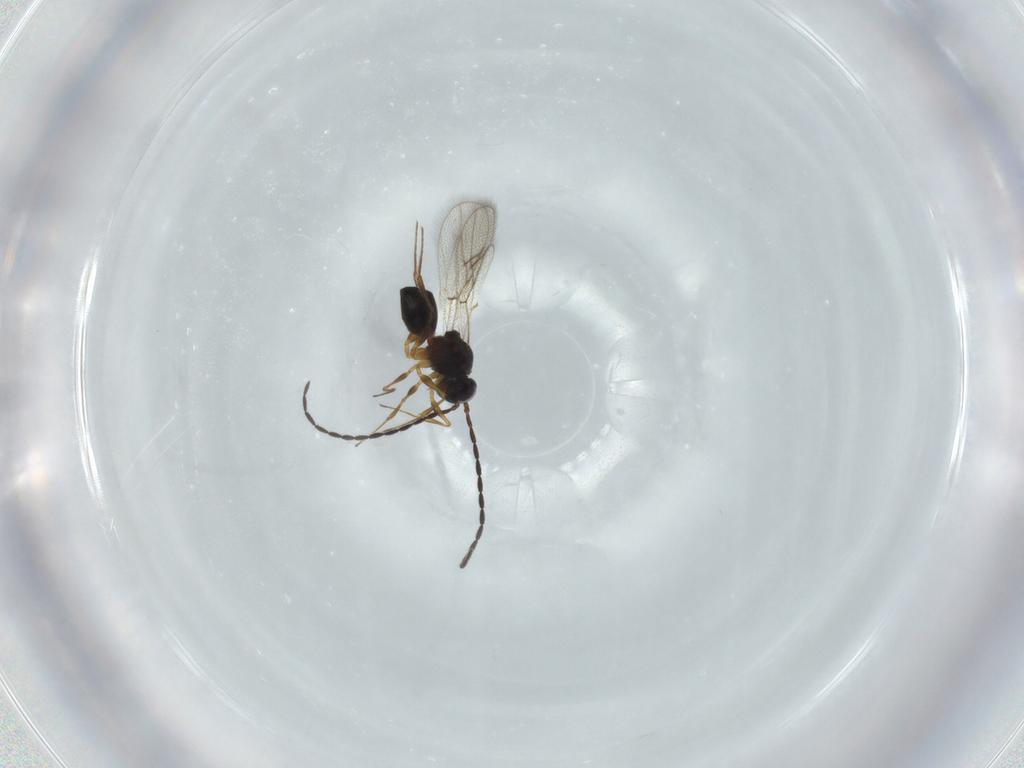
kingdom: Animalia
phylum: Arthropoda
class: Insecta
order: Hymenoptera
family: Figitidae
